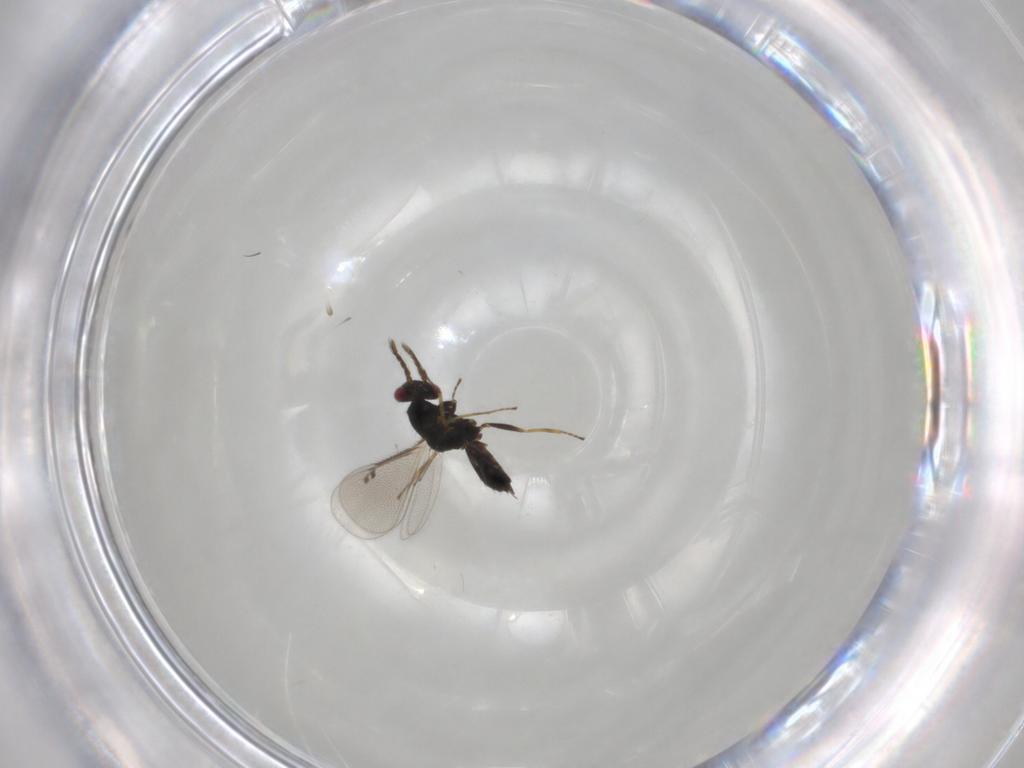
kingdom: Animalia
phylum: Arthropoda
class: Insecta
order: Hymenoptera
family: Eulophidae
